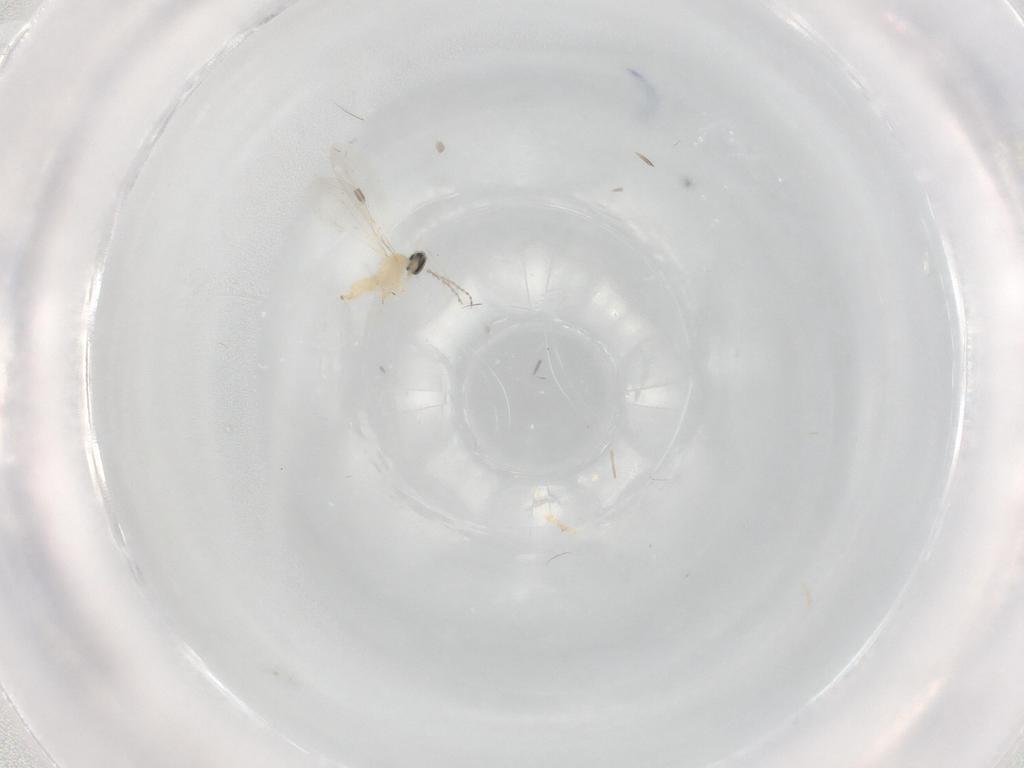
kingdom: Animalia
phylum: Arthropoda
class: Insecta
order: Diptera
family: Cecidomyiidae
